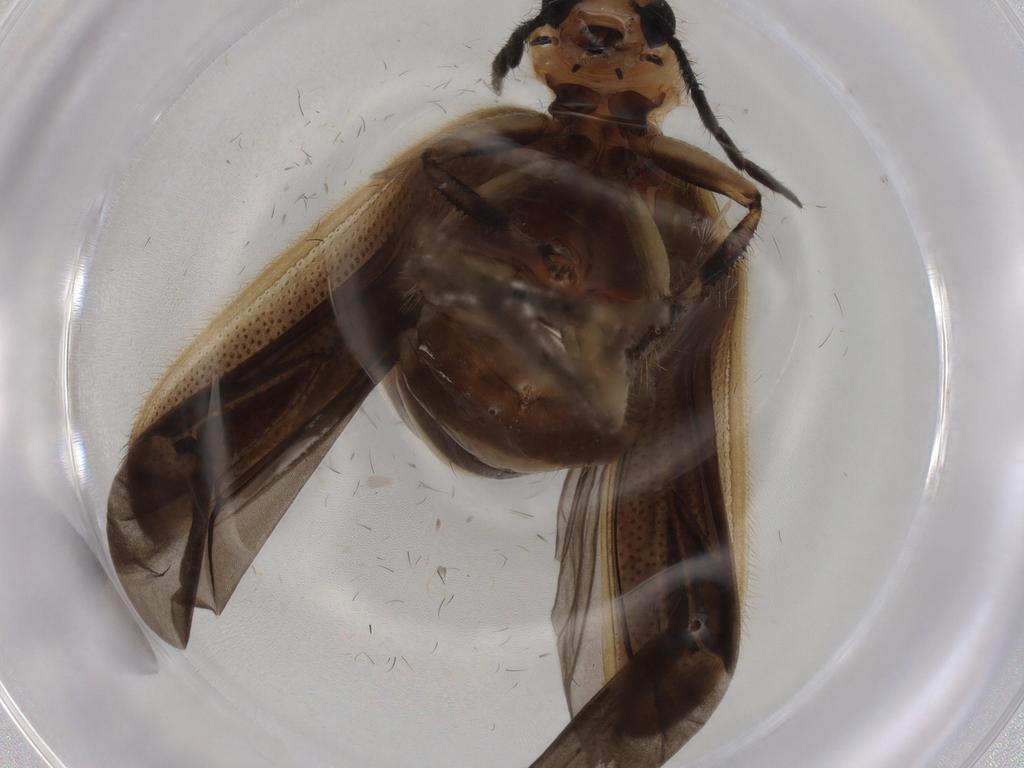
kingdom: Animalia
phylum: Arthropoda
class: Insecta
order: Coleoptera
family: Cleridae
